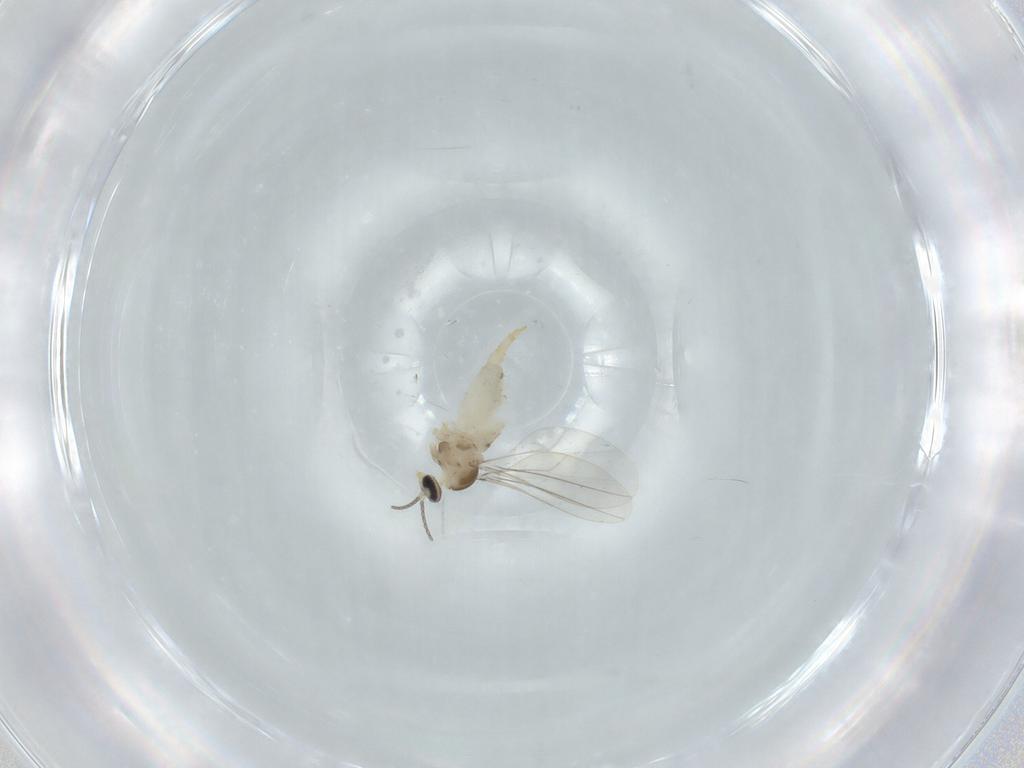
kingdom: Animalia
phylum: Arthropoda
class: Insecta
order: Diptera
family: Cecidomyiidae
